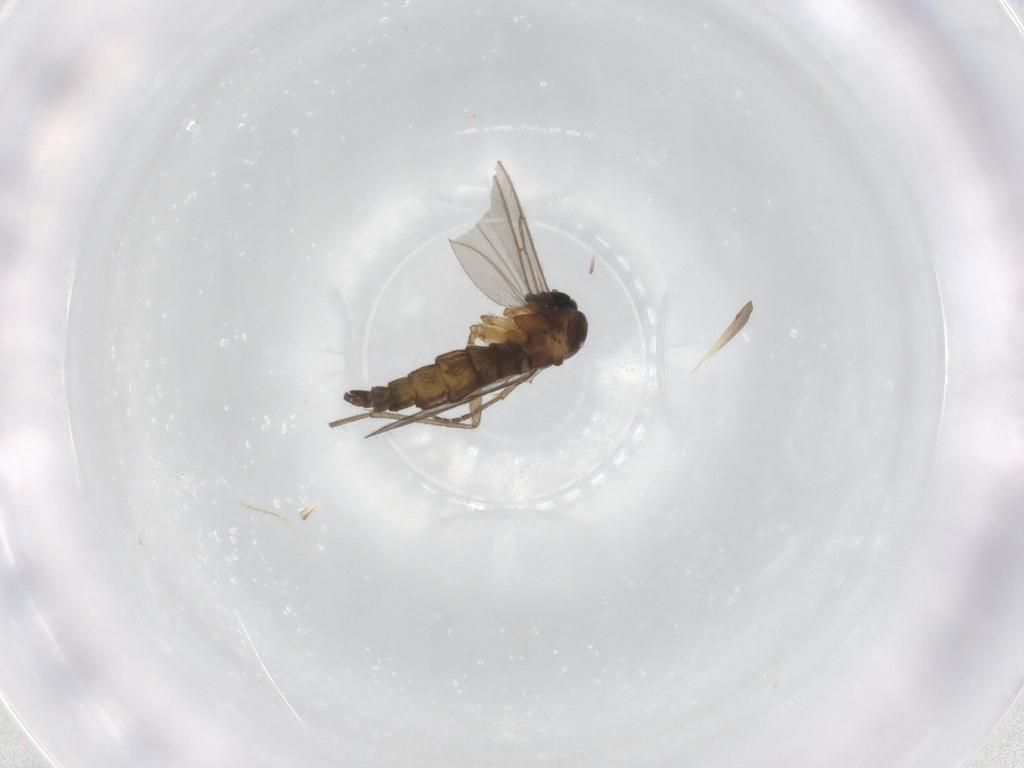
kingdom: Animalia
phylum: Arthropoda
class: Insecta
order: Diptera
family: Sciaridae
